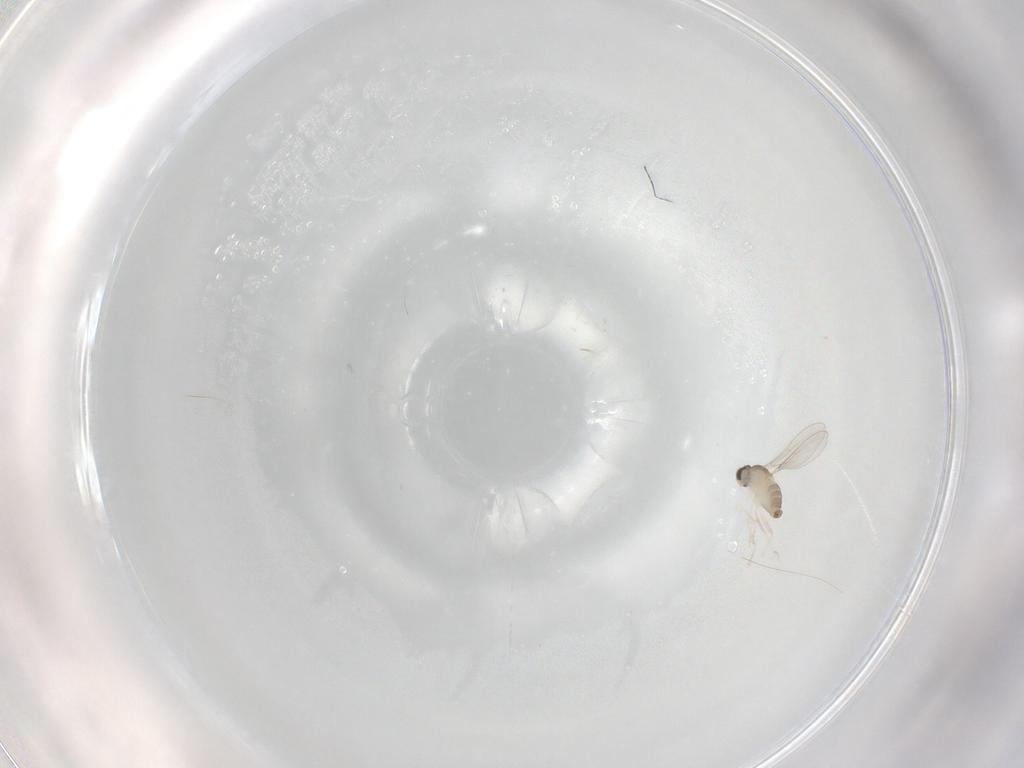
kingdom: Animalia
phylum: Arthropoda
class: Insecta
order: Diptera
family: Cecidomyiidae
